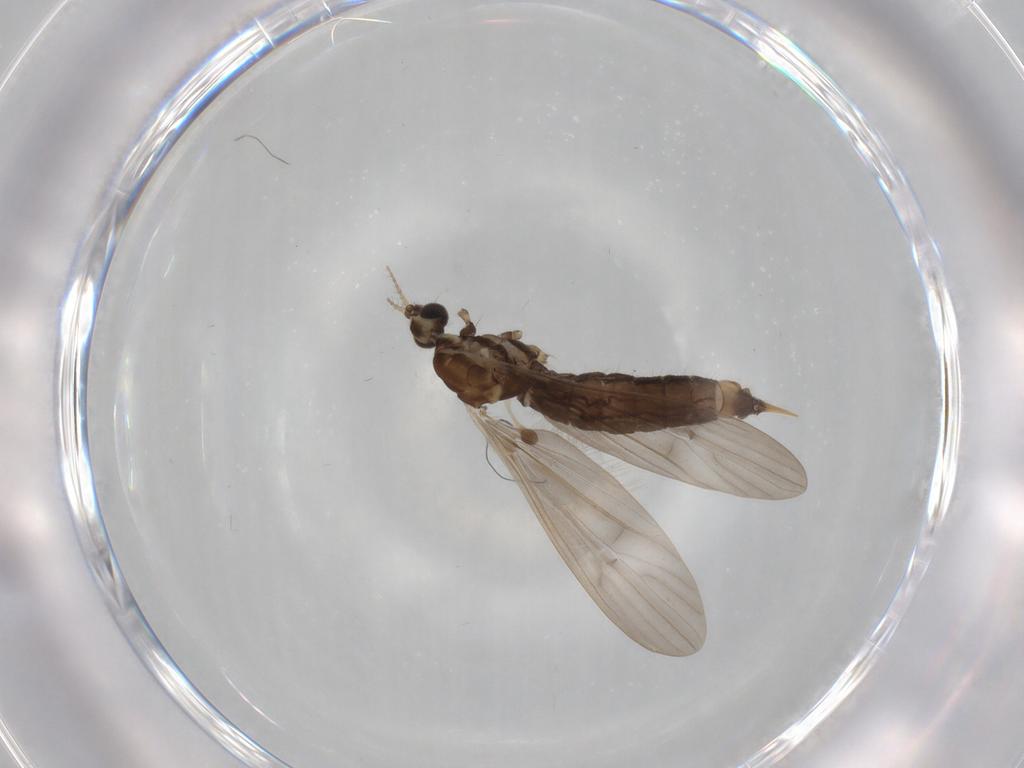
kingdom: Animalia
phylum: Arthropoda
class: Insecta
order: Diptera
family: Limoniidae
